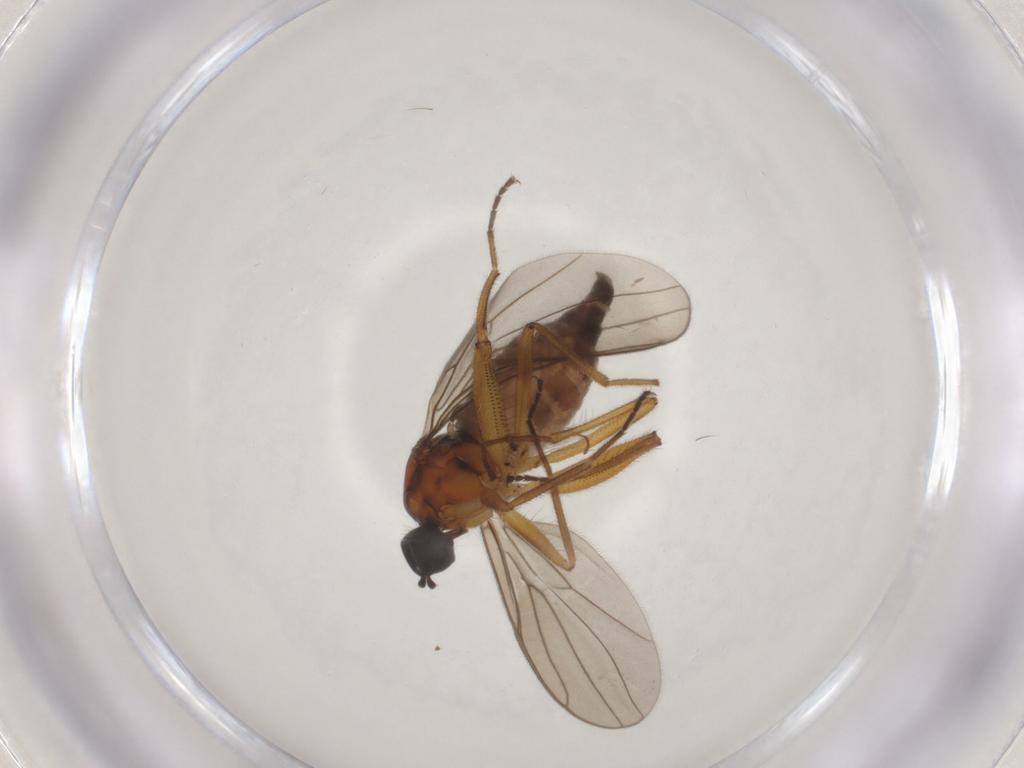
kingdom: Animalia
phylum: Arthropoda
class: Insecta
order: Diptera
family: Hybotidae
